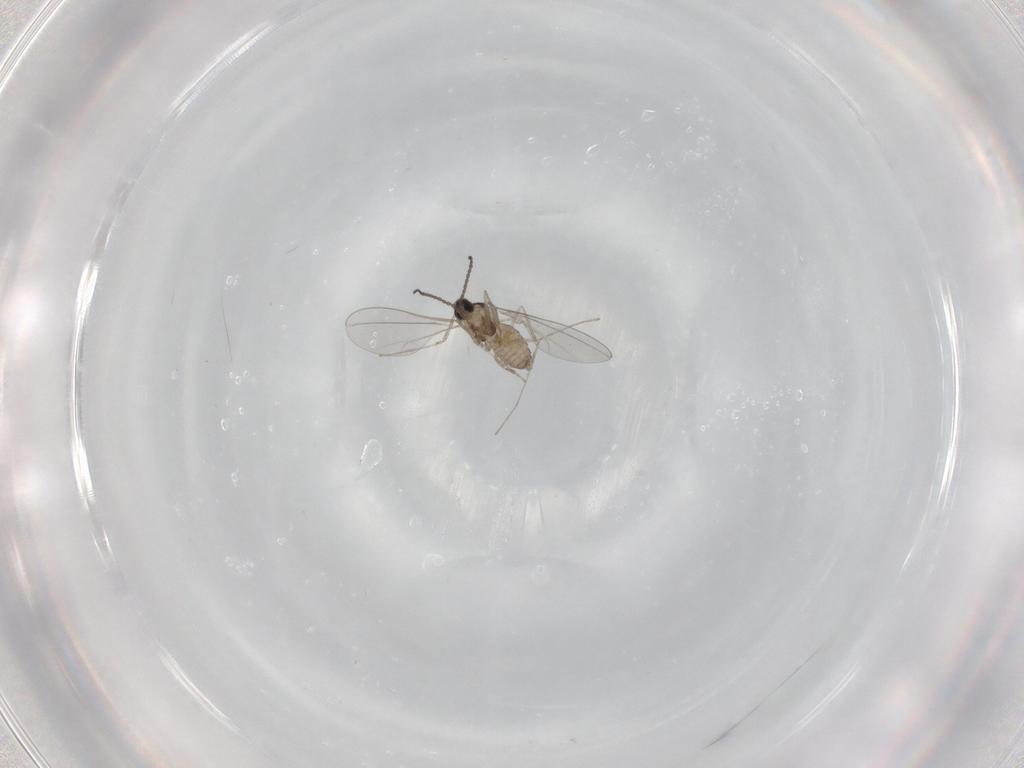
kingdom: Animalia
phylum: Arthropoda
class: Insecta
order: Diptera
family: Cecidomyiidae
